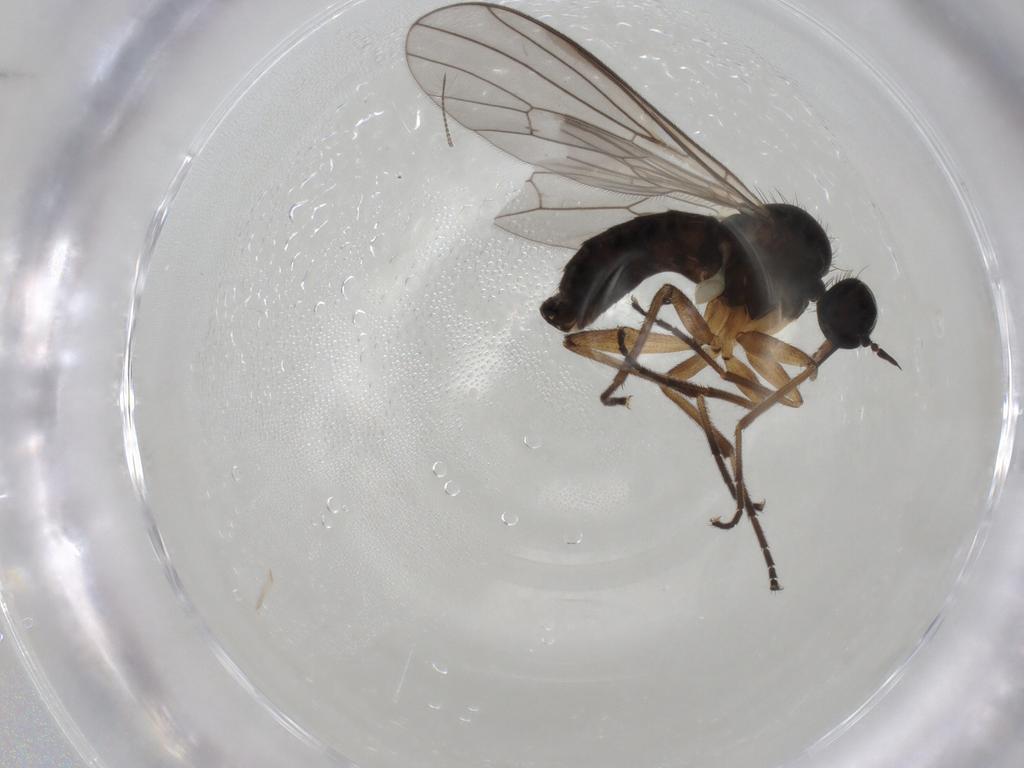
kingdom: Animalia
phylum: Arthropoda
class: Insecta
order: Diptera
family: Empididae
